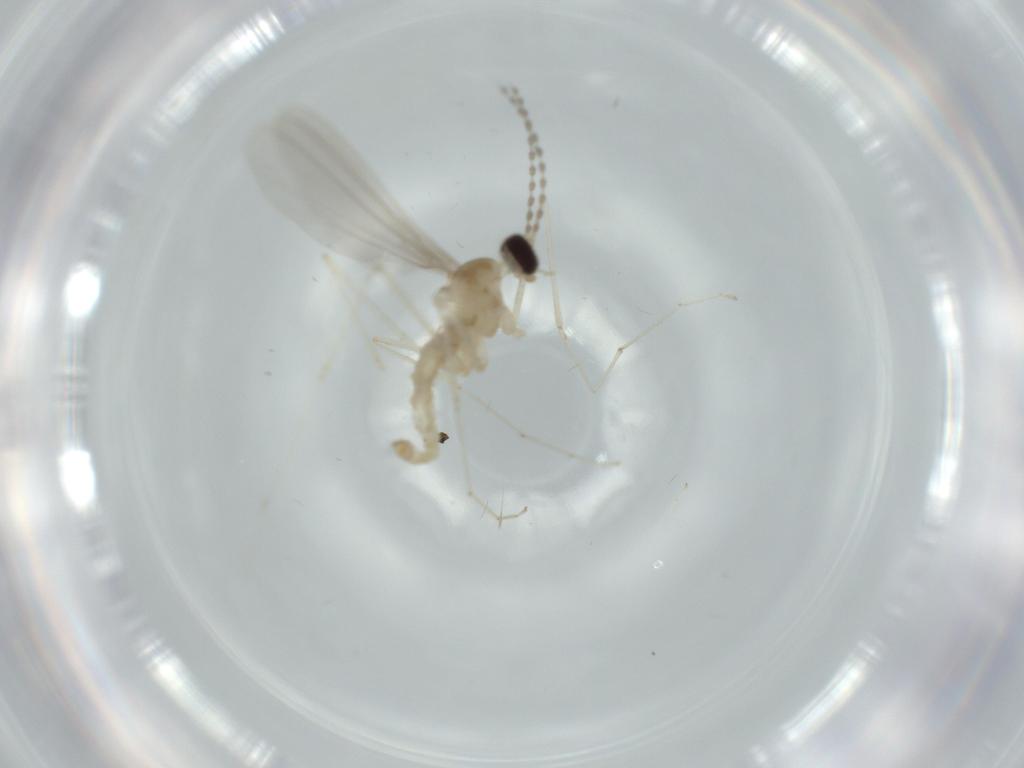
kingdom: Animalia
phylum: Arthropoda
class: Insecta
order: Diptera
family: Cecidomyiidae
